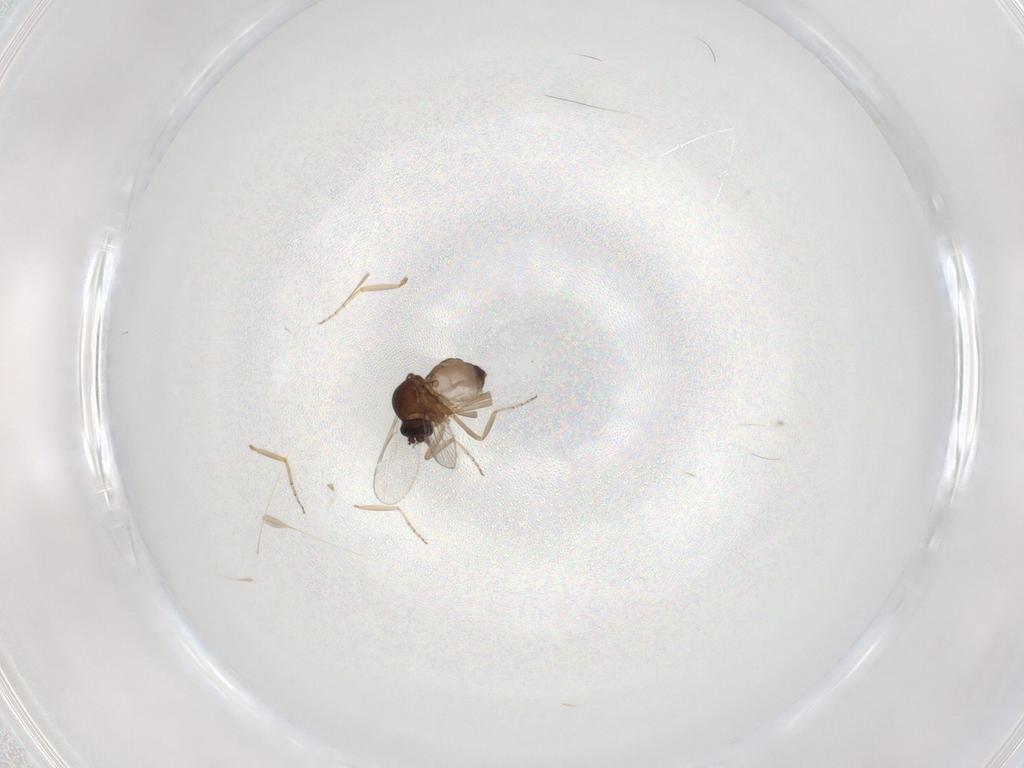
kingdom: Animalia
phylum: Arthropoda
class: Insecta
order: Diptera
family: Ceratopogonidae
